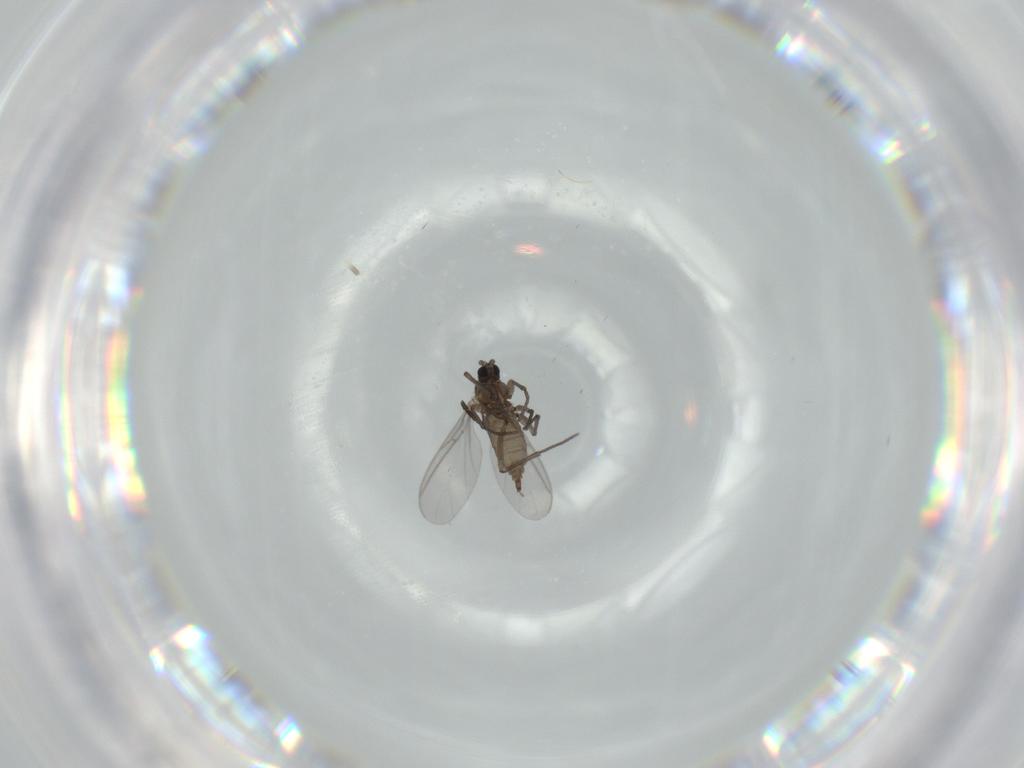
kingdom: Animalia
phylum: Arthropoda
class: Insecta
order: Diptera
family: Sciaridae
